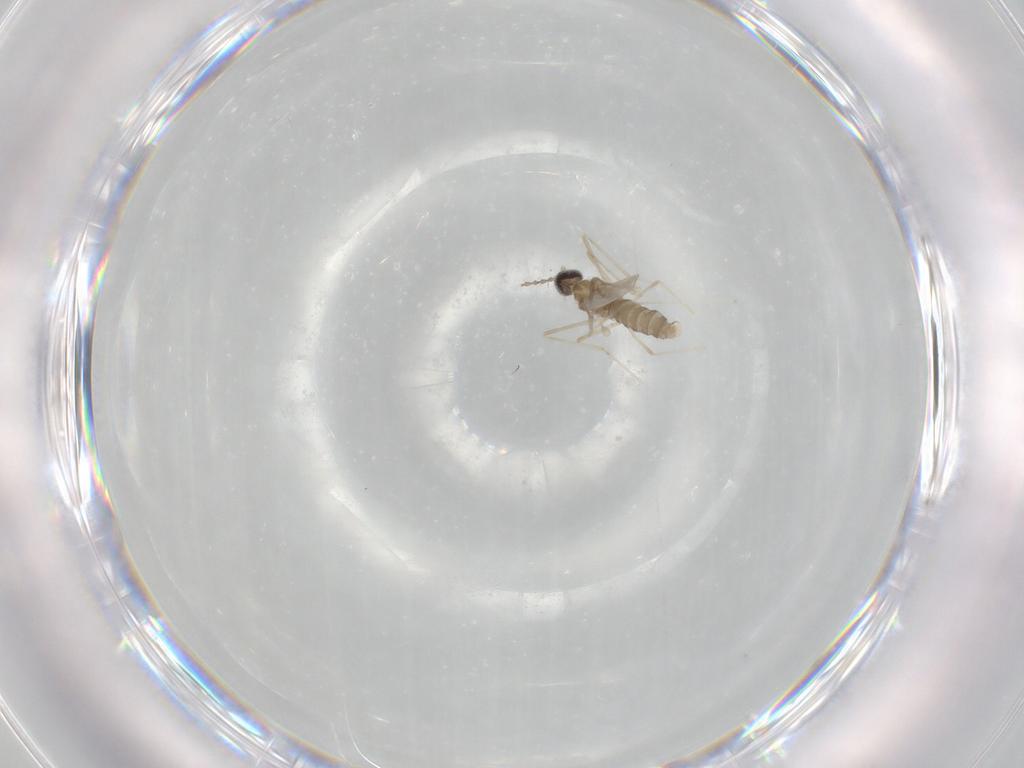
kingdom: Animalia
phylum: Arthropoda
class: Insecta
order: Diptera
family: Cecidomyiidae
